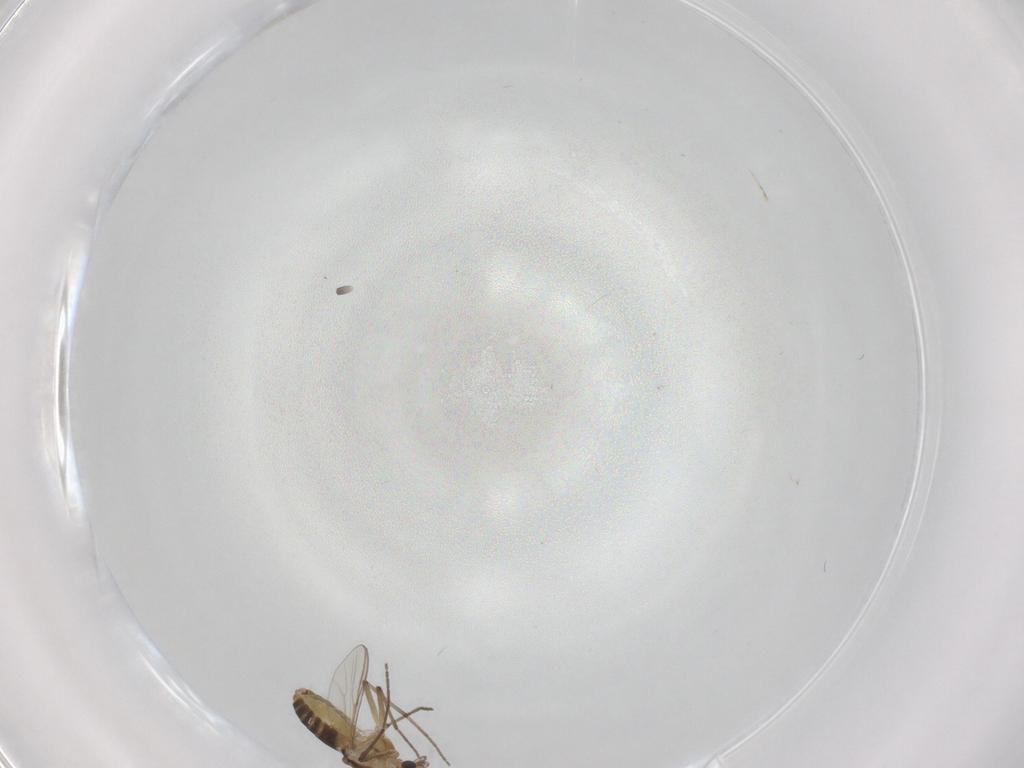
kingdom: Animalia
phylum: Arthropoda
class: Insecta
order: Diptera
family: Chironomidae
